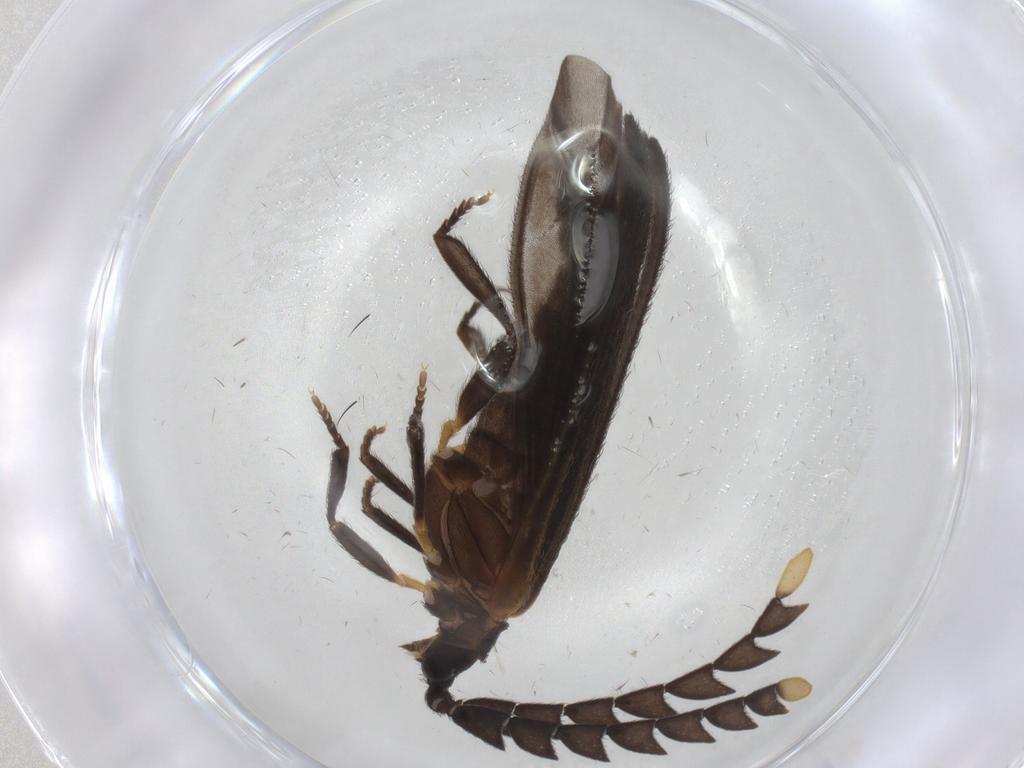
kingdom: Animalia
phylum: Arthropoda
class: Insecta
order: Coleoptera
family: Lycidae
